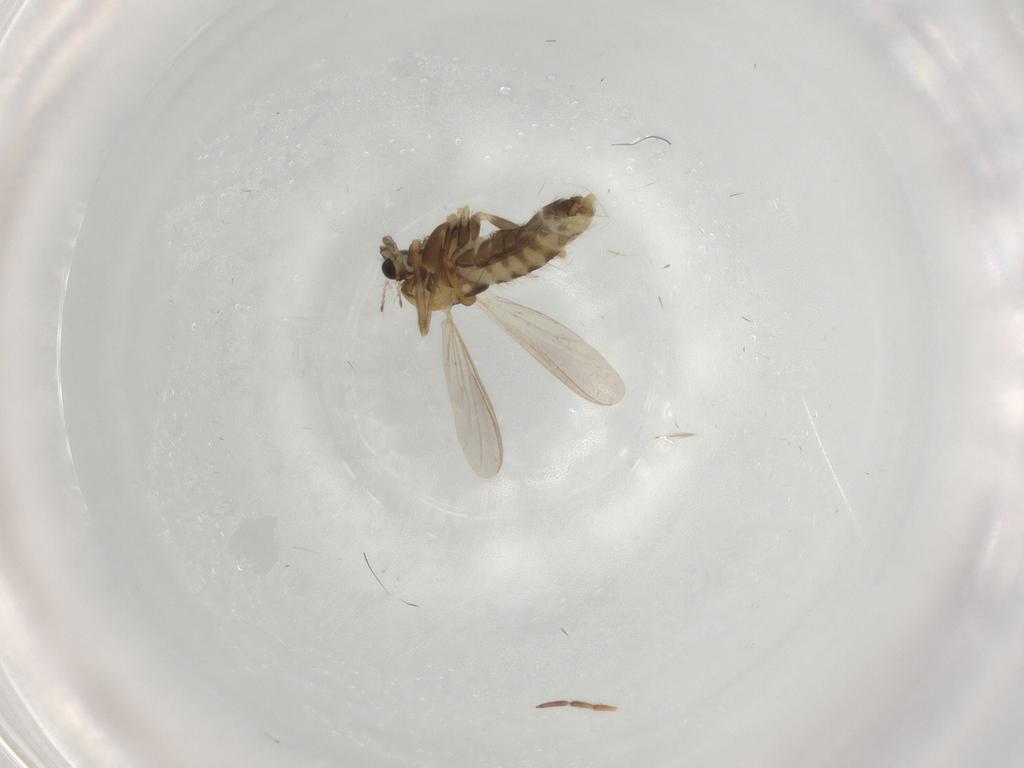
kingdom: Animalia
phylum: Arthropoda
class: Insecta
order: Diptera
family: Chironomidae
